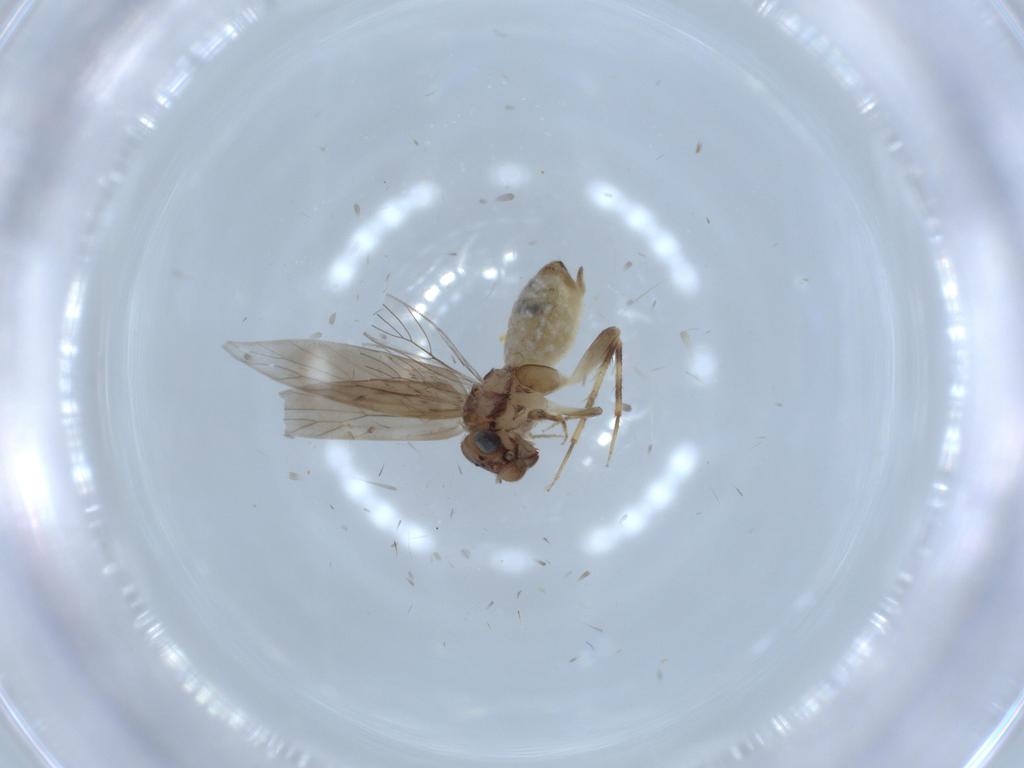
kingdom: Animalia
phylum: Arthropoda
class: Insecta
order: Psocodea
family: Lepidopsocidae
